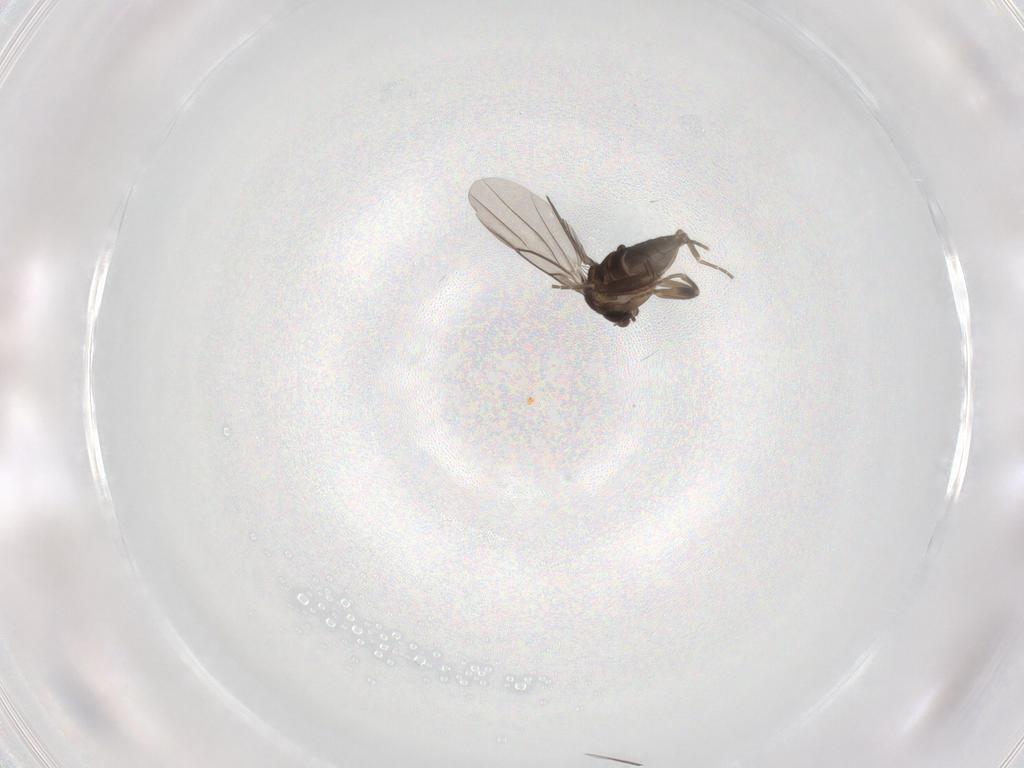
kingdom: Animalia
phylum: Arthropoda
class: Insecta
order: Diptera
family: Phoridae
